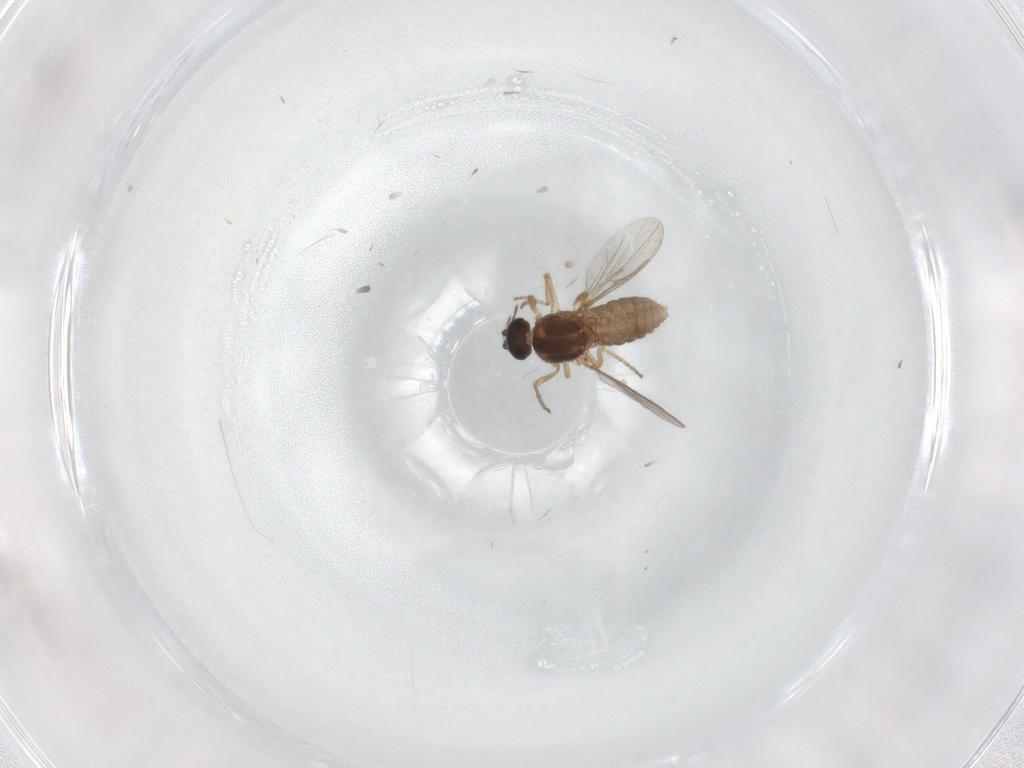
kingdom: Animalia
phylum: Arthropoda
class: Insecta
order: Diptera
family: Ceratopogonidae
